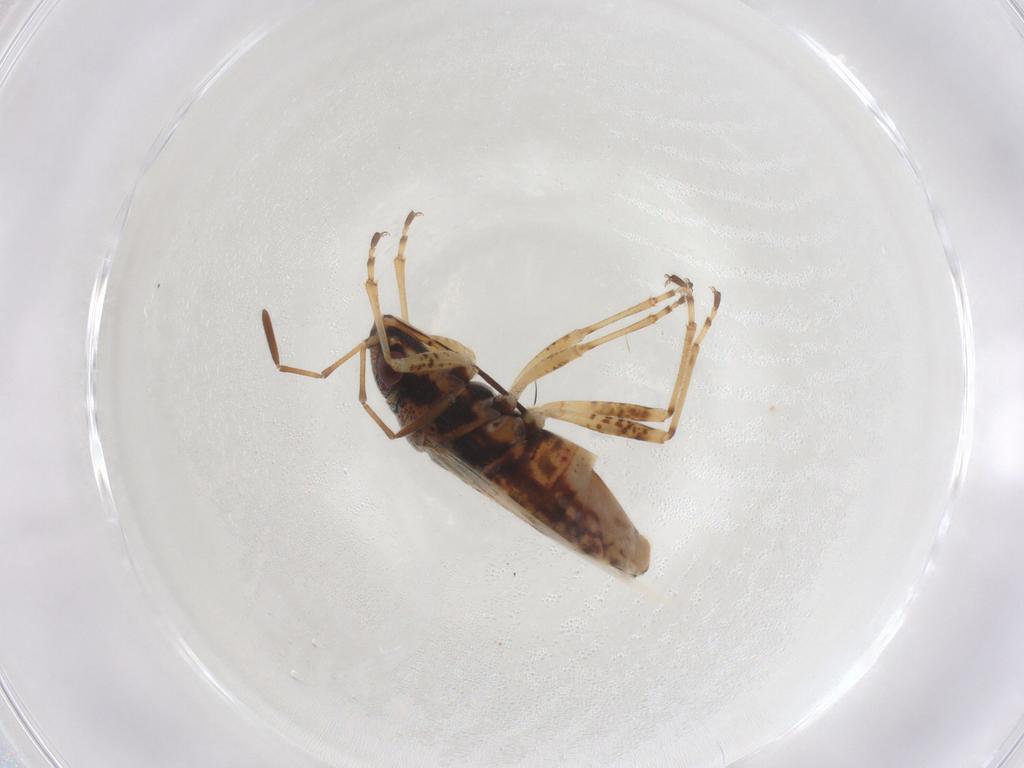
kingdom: Animalia
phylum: Arthropoda
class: Insecta
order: Hemiptera
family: Lygaeidae
